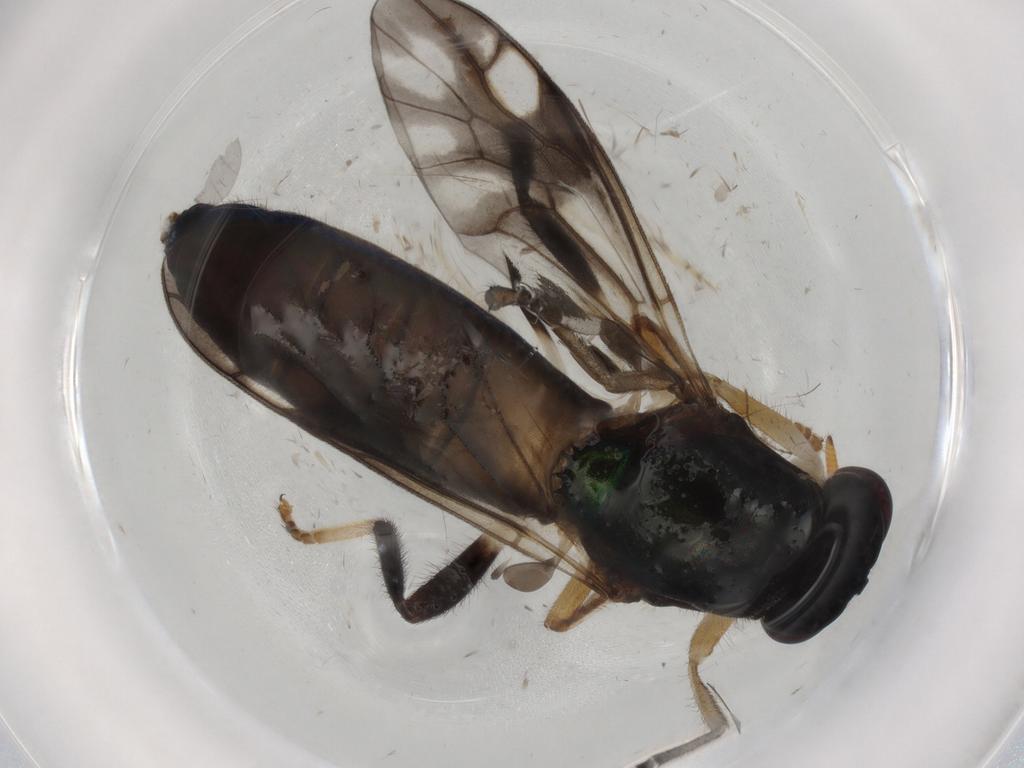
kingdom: Animalia
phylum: Arthropoda
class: Insecta
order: Diptera
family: Stratiomyidae
